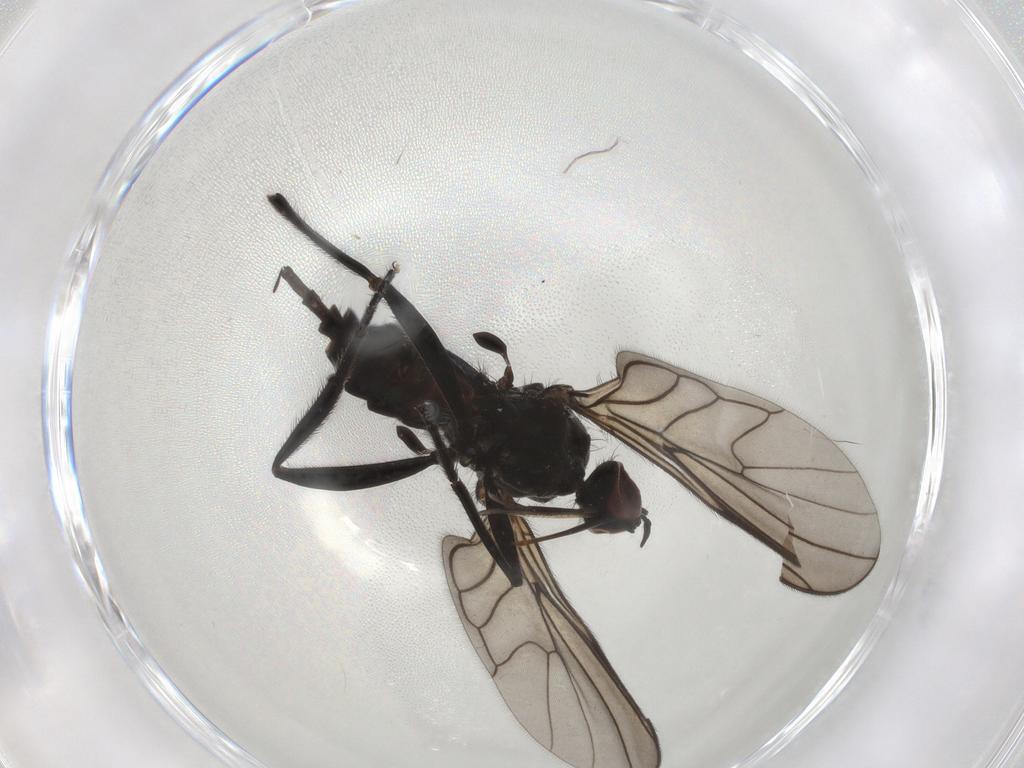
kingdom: Animalia
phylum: Arthropoda
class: Insecta
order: Diptera
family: Empididae
